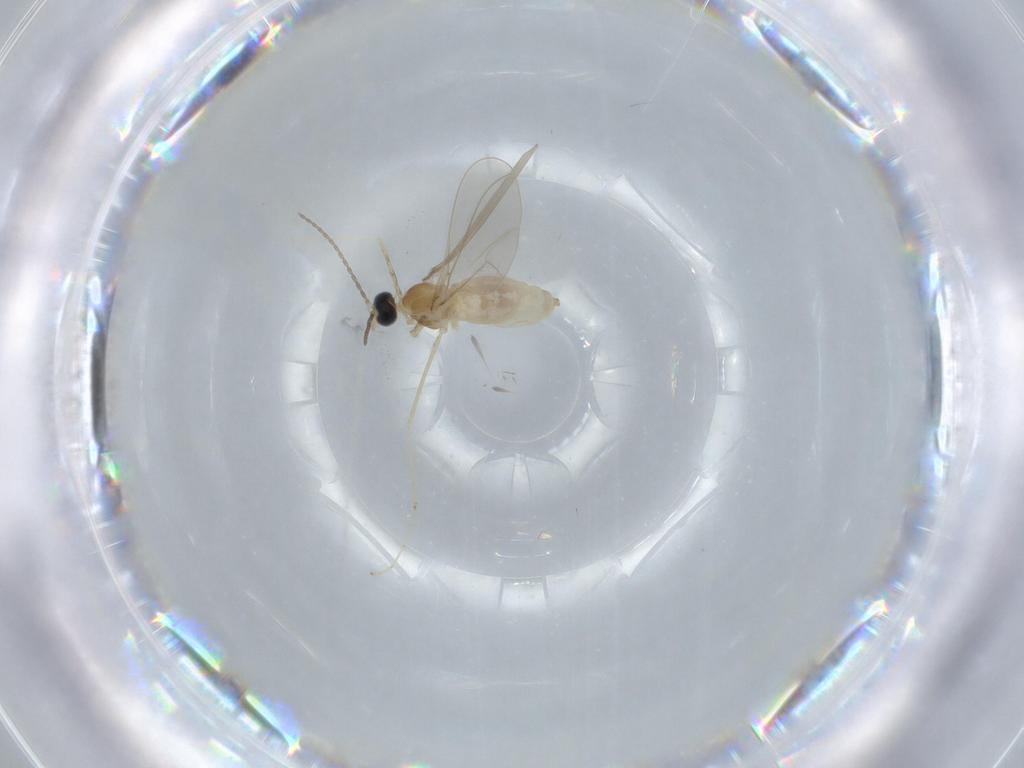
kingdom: Animalia
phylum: Arthropoda
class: Insecta
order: Diptera
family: Cecidomyiidae
